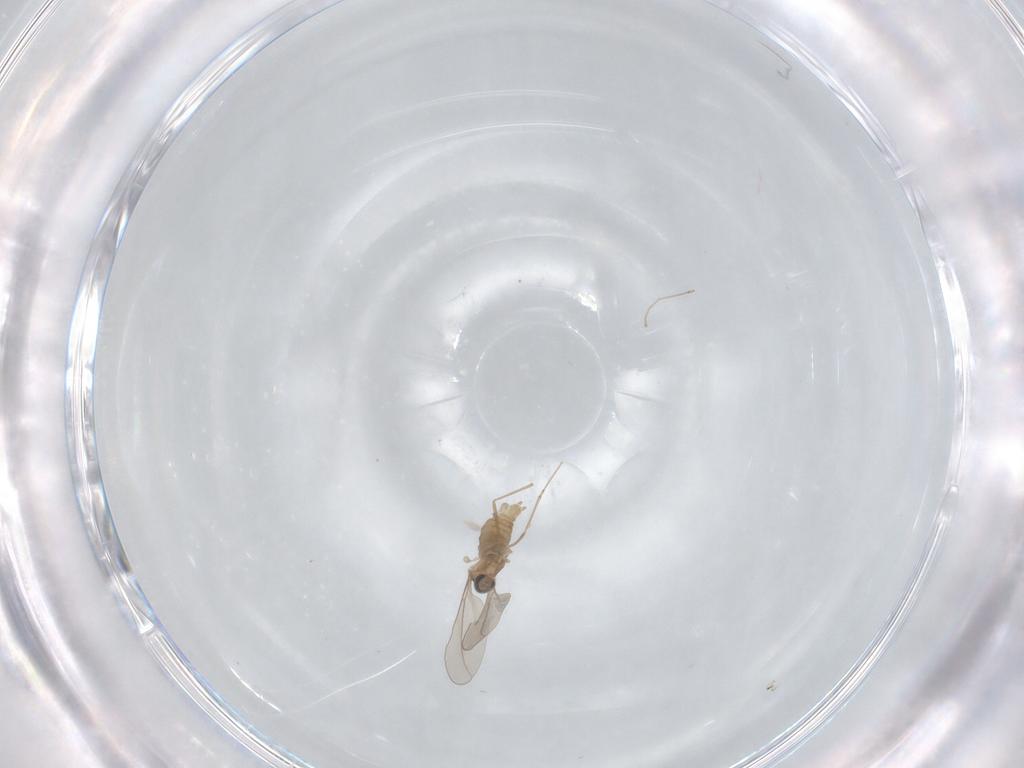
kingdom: Animalia
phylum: Arthropoda
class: Insecta
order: Diptera
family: Cecidomyiidae
